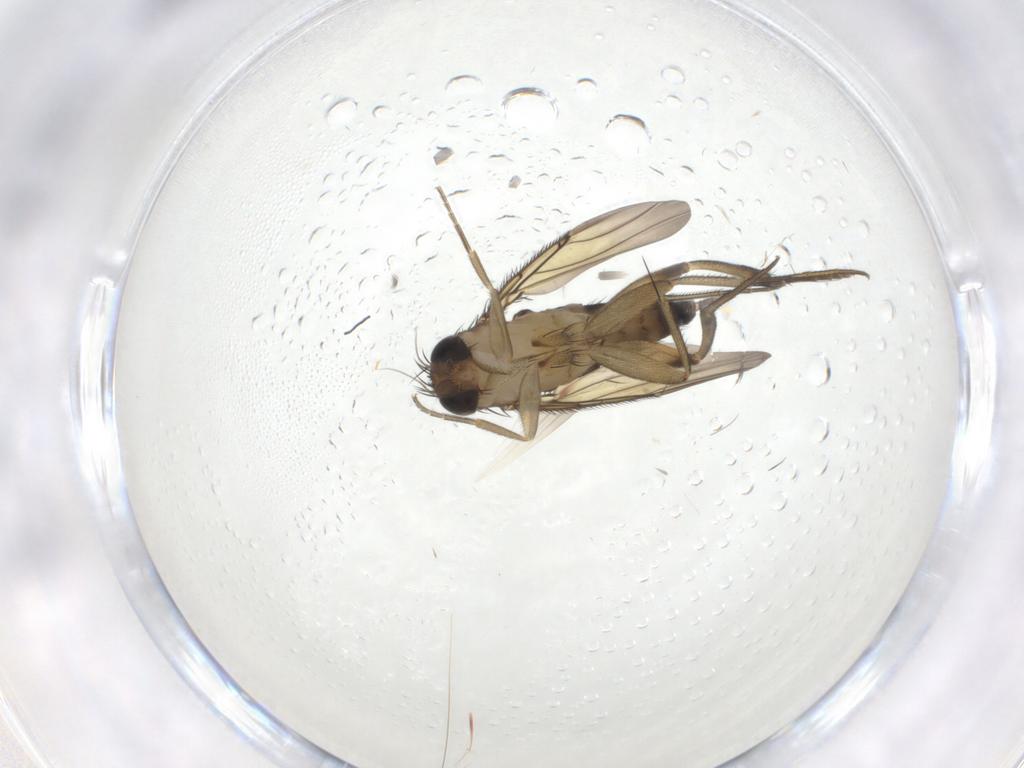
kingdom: Animalia
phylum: Arthropoda
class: Insecta
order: Diptera
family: Phoridae
